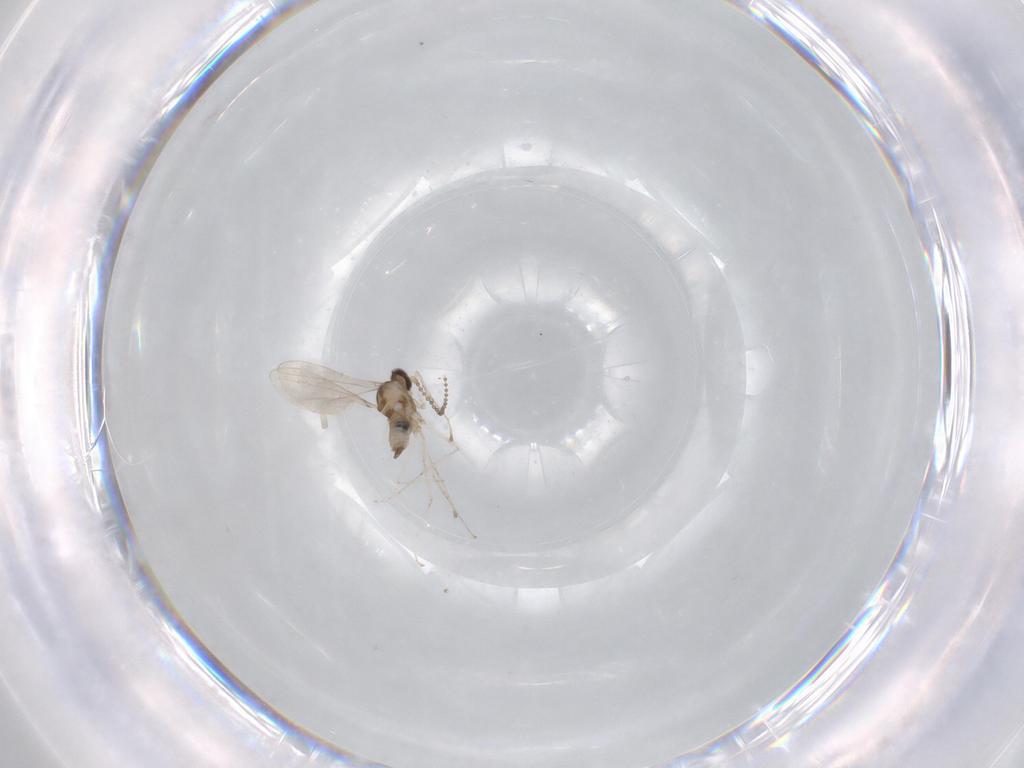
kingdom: Animalia
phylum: Arthropoda
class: Insecta
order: Diptera
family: Cecidomyiidae
